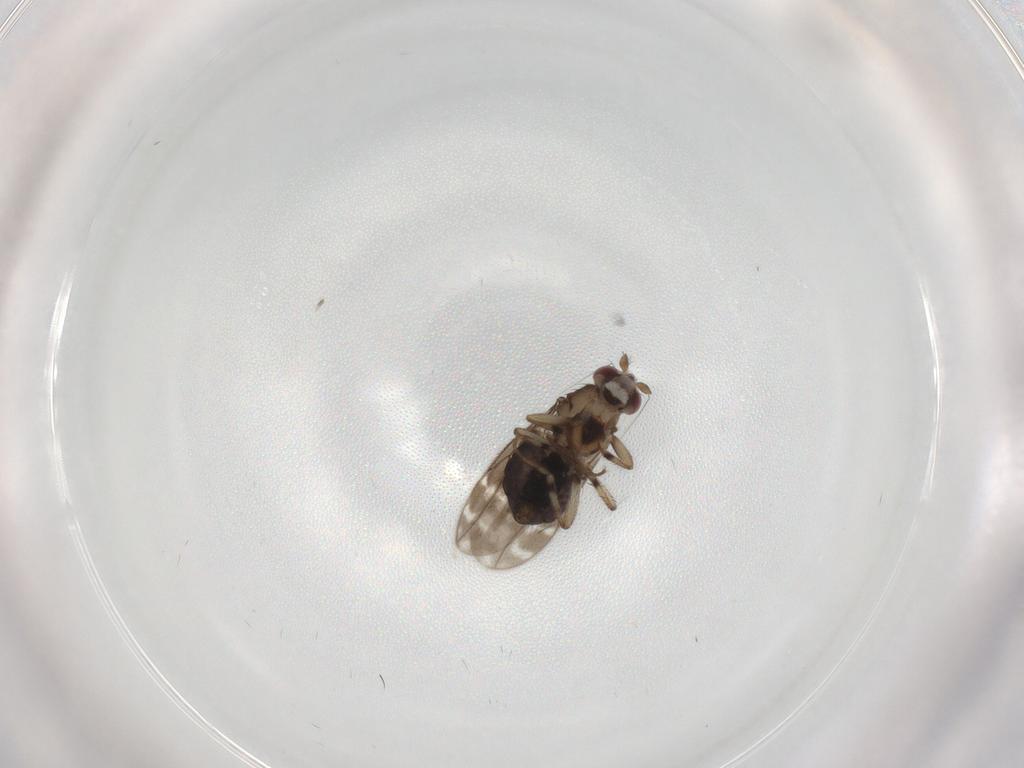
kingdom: Animalia
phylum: Arthropoda
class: Insecta
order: Diptera
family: Sphaeroceridae
